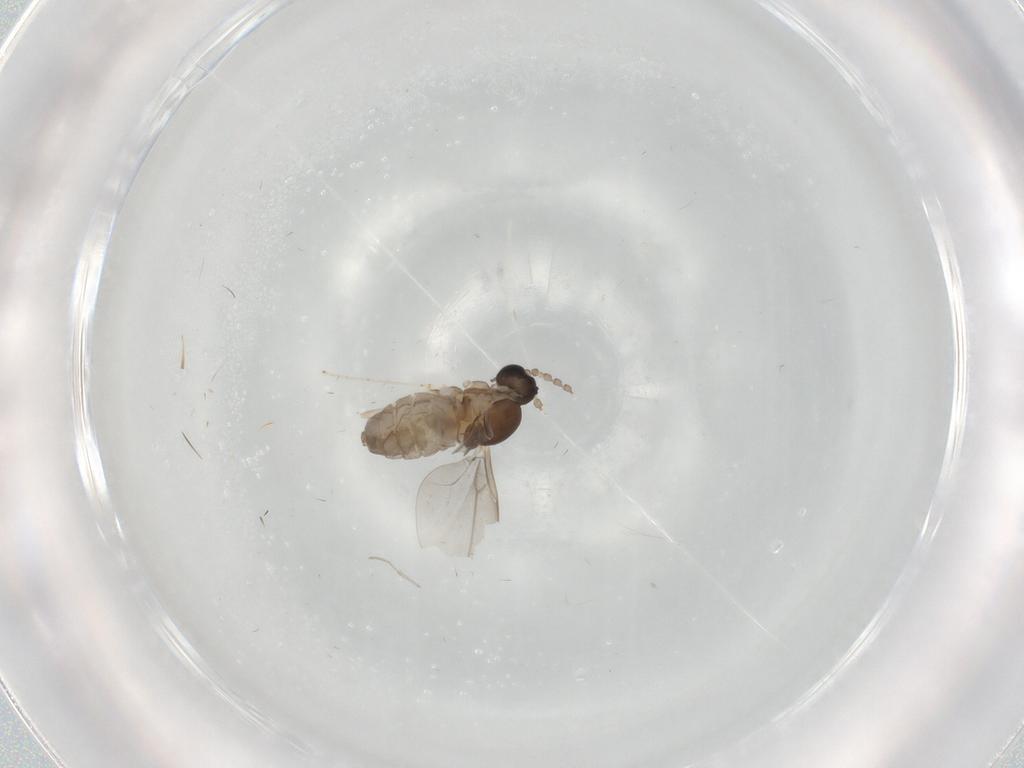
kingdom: Animalia
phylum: Arthropoda
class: Insecta
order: Diptera
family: Cecidomyiidae
